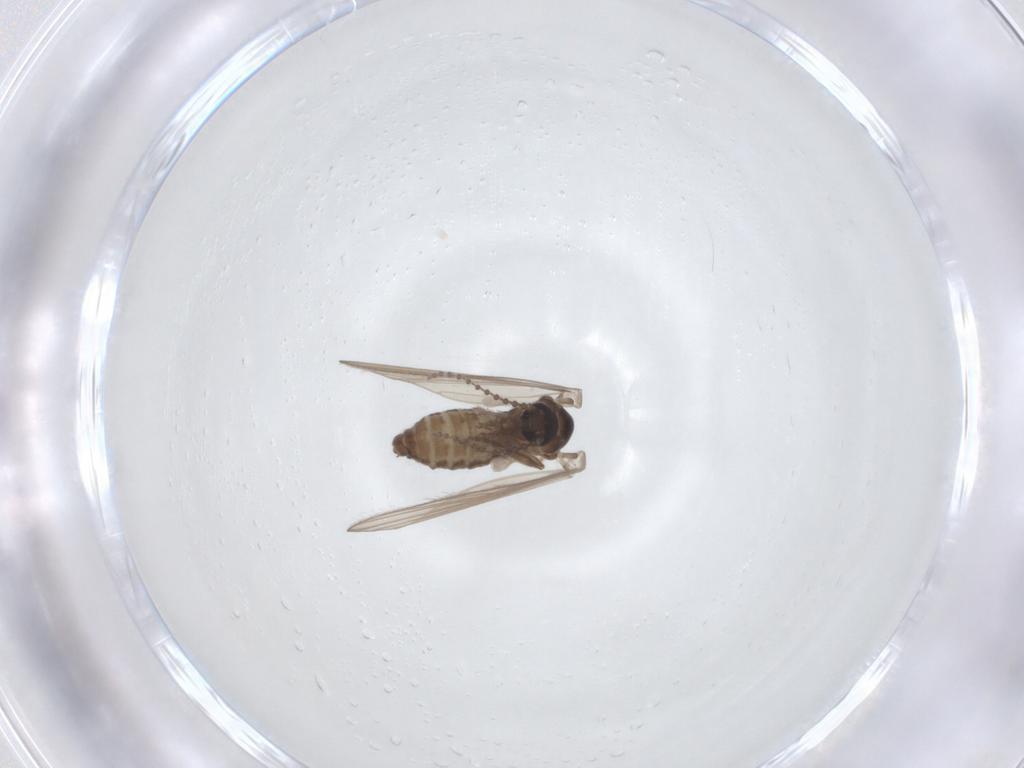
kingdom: Animalia
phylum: Arthropoda
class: Insecta
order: Diptera
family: Psychodidae
